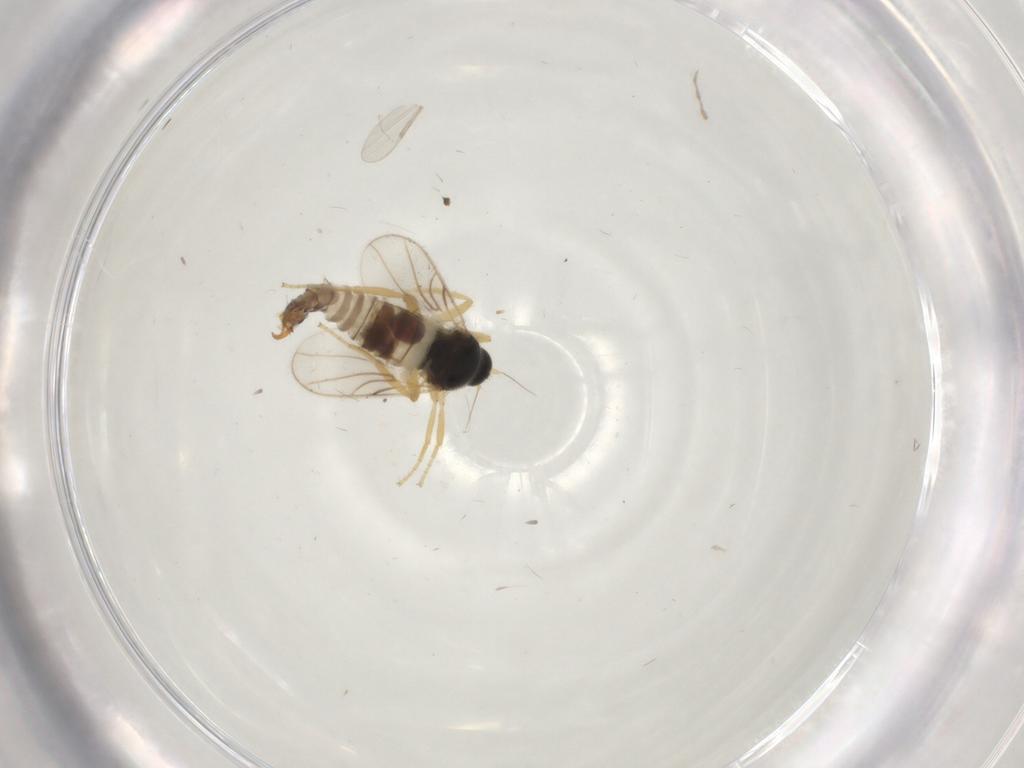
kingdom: Animalia
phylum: Arthropoda
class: Insecta
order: Diptera
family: Hybotidae
